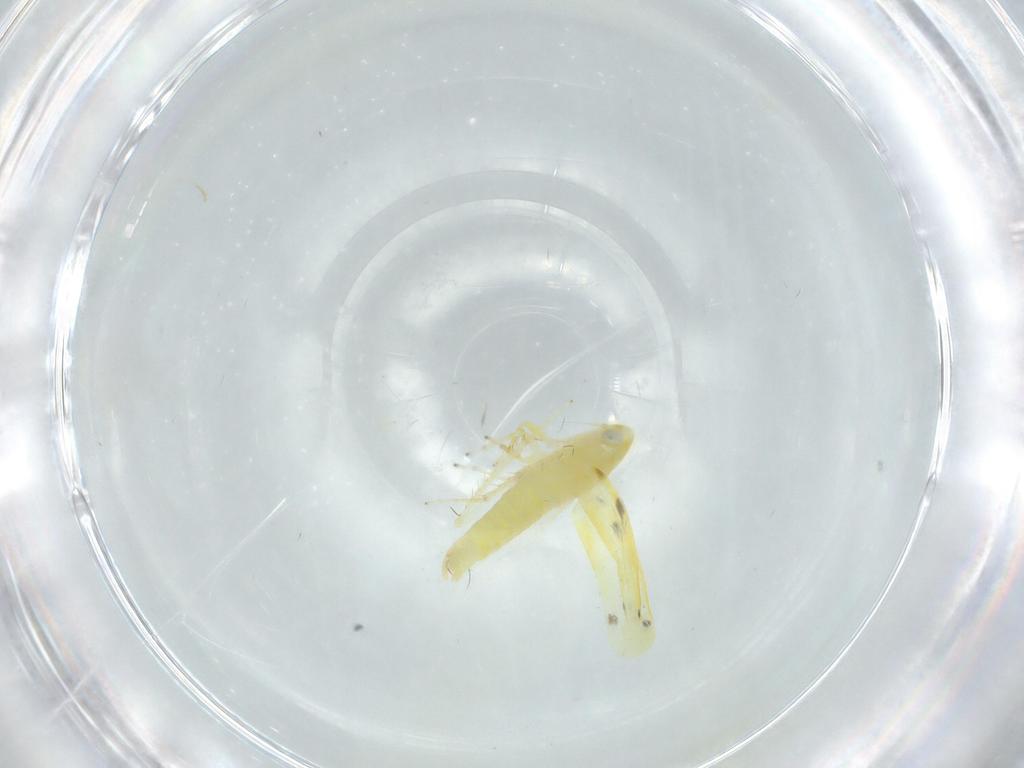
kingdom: Animalia
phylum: Arthropoda
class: Insecta
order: Hemiptera
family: Cicadellidae
